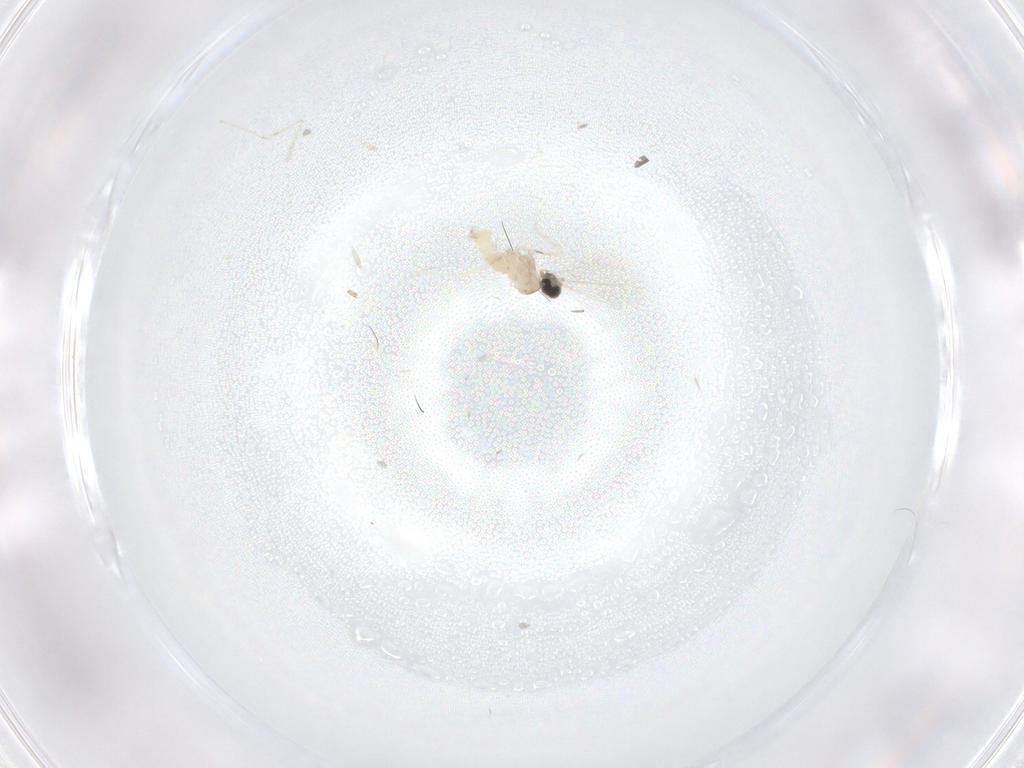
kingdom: Animalia
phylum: Arthropoda
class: Insecta
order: Diptera
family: Cecidomyiidae
